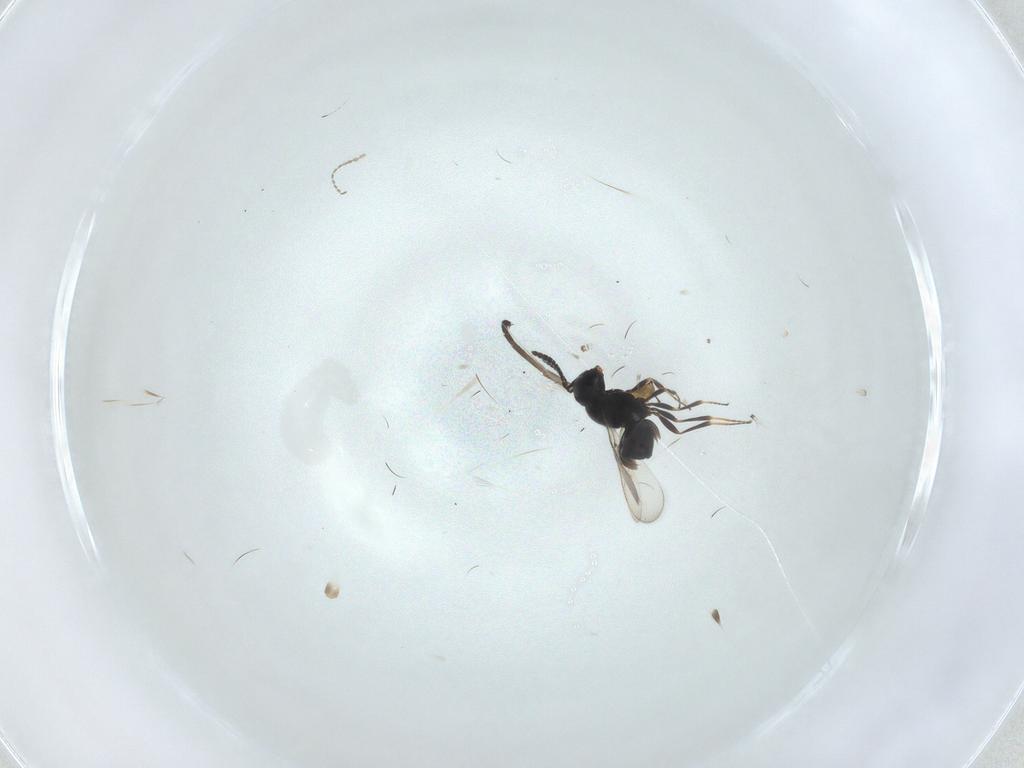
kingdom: Animalia
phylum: Arthropoda
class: Insecta
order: Hymenoptera
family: Scelionidae
